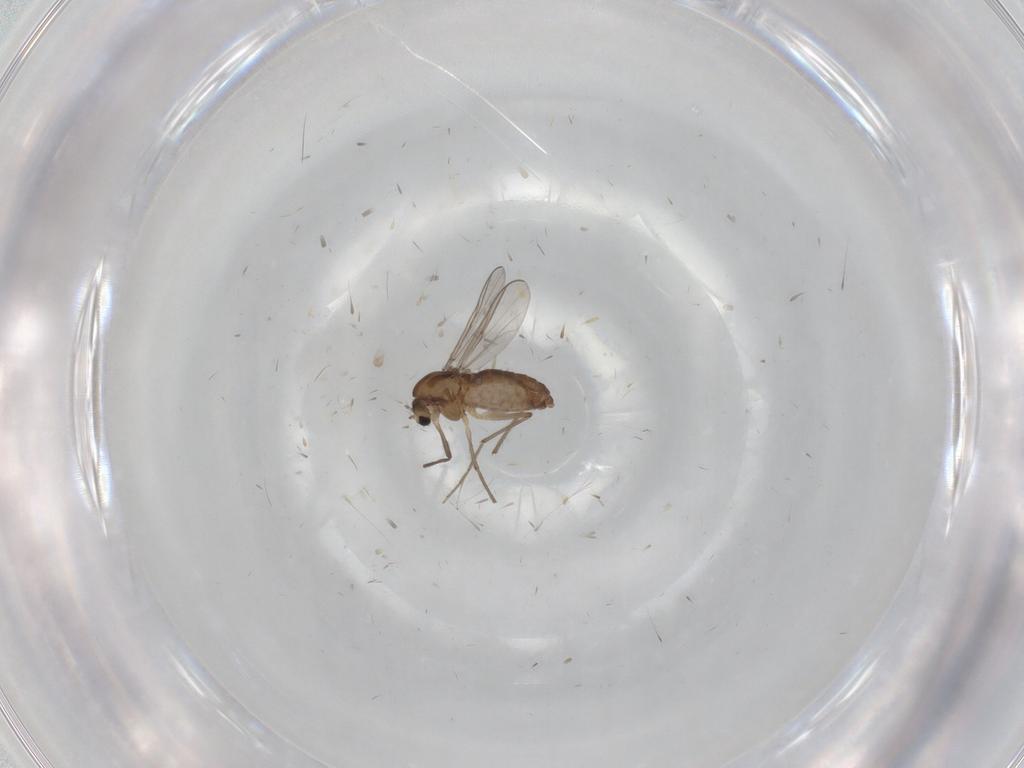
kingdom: Animalia
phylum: Arthropoda
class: Insecta
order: Diptera
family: Chironomidae
